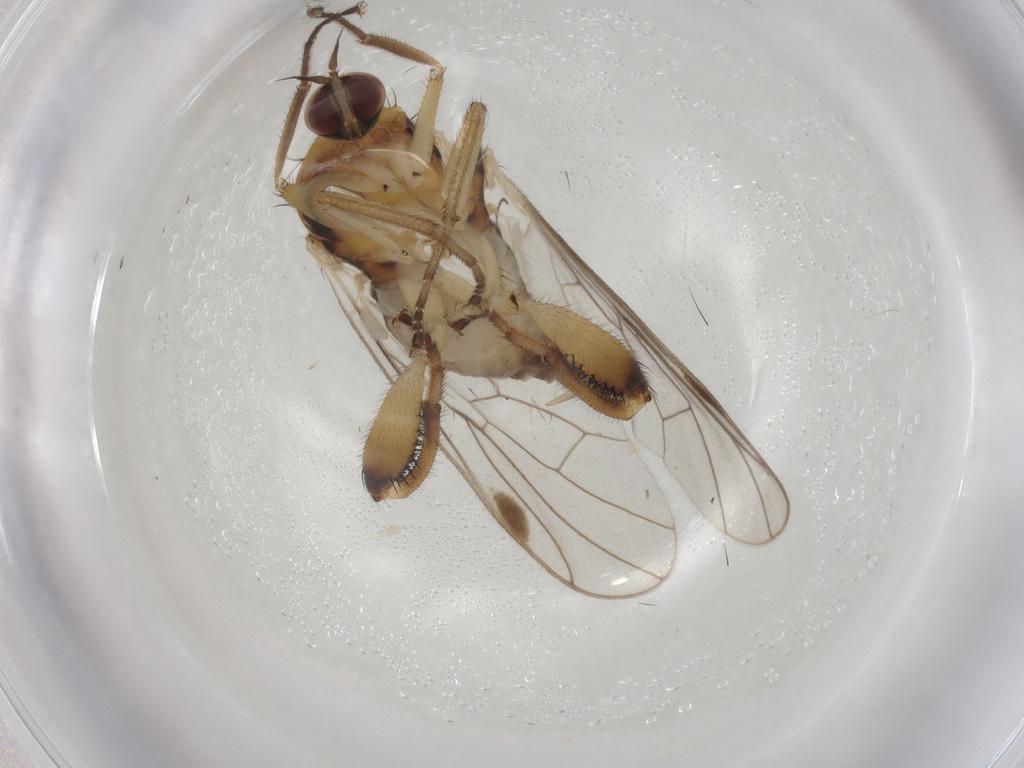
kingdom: Animalia
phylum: Arthropoda
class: Insecta
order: Diptera
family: Hybotidae
